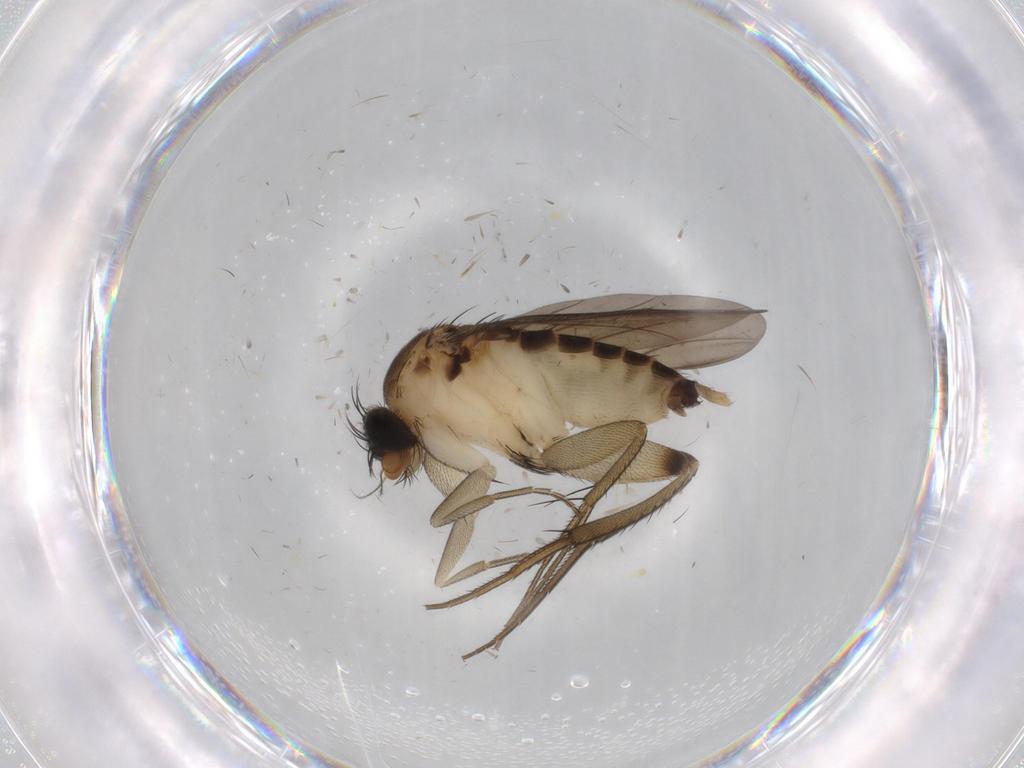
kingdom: Animalia
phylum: Arthropoda
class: Insecta
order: Diptera
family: Phoridae
